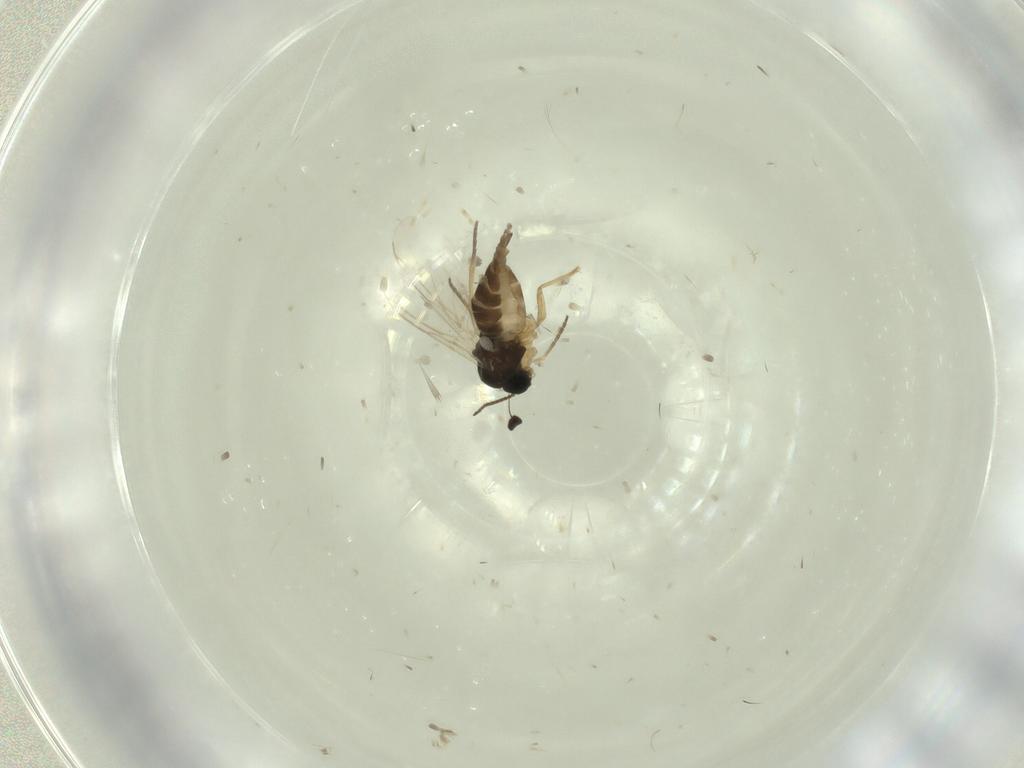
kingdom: Animalia
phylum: Arthropoda
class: Insecta
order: Diptera
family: Sciaridae
